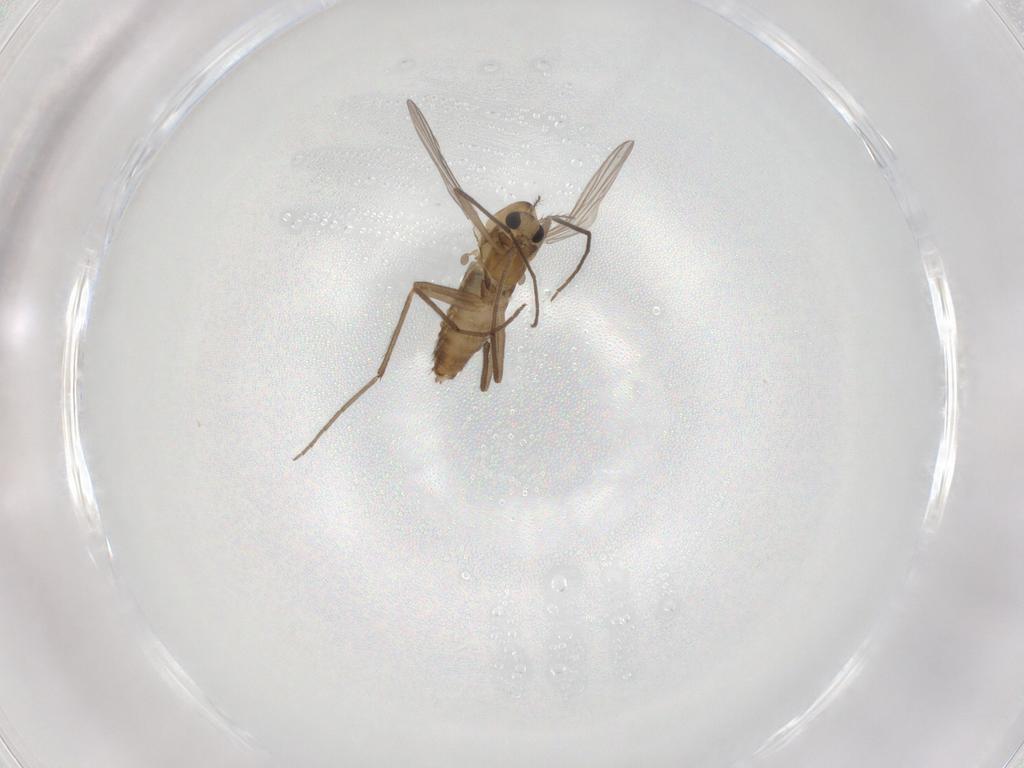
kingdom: Animalia
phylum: Arthropoda
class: Insecta
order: Diptera
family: Chironomidae
